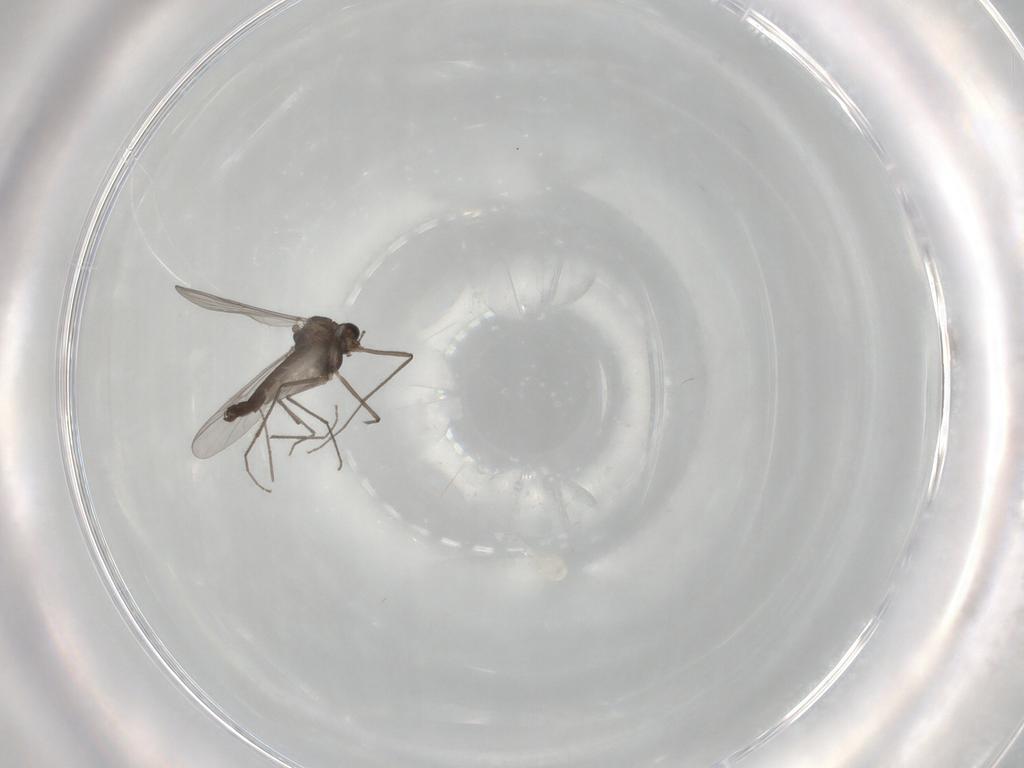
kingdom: Animalia
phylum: Arthropoda
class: Insecta
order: Diptera
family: Chironomidae
